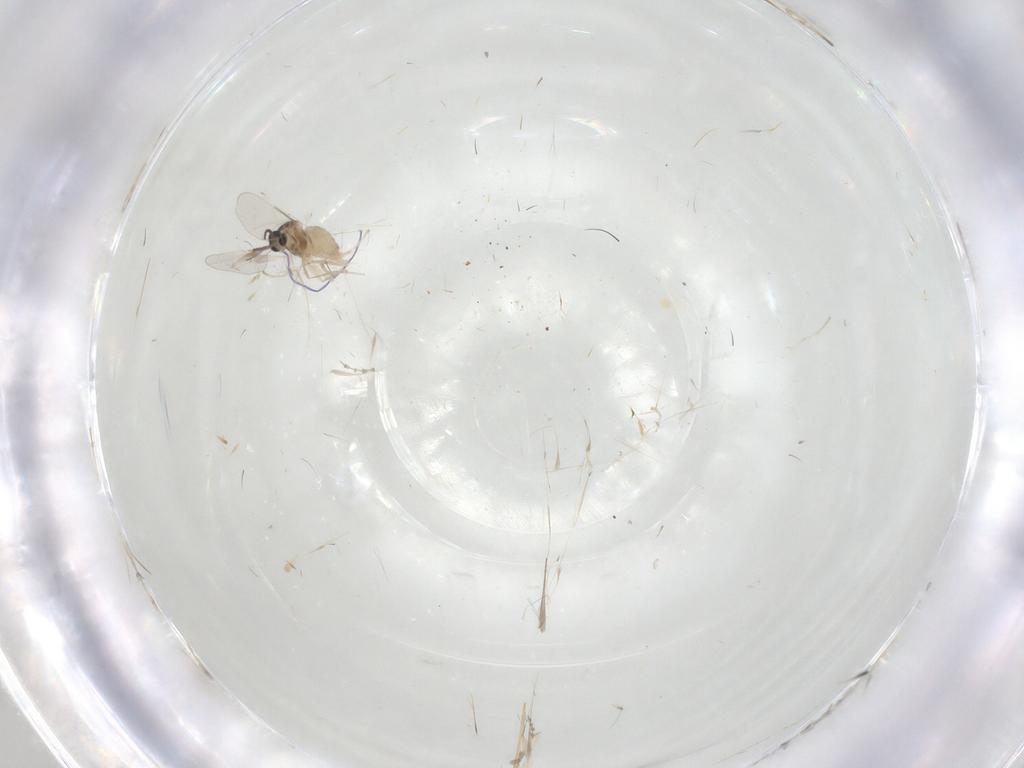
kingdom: Animalia
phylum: Arthropoda
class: Insecta
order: Diptera
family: Cecidomyiidae
